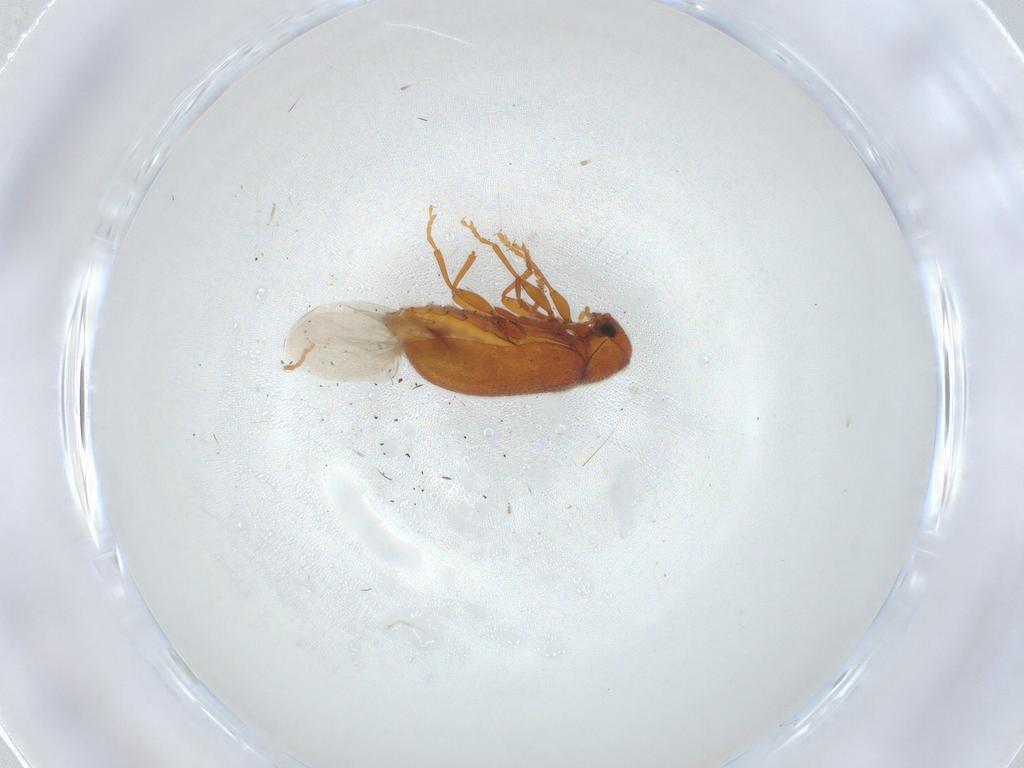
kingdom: Animalia
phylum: Arthropoda
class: Insecta
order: Coleoptera
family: Ptinidae
